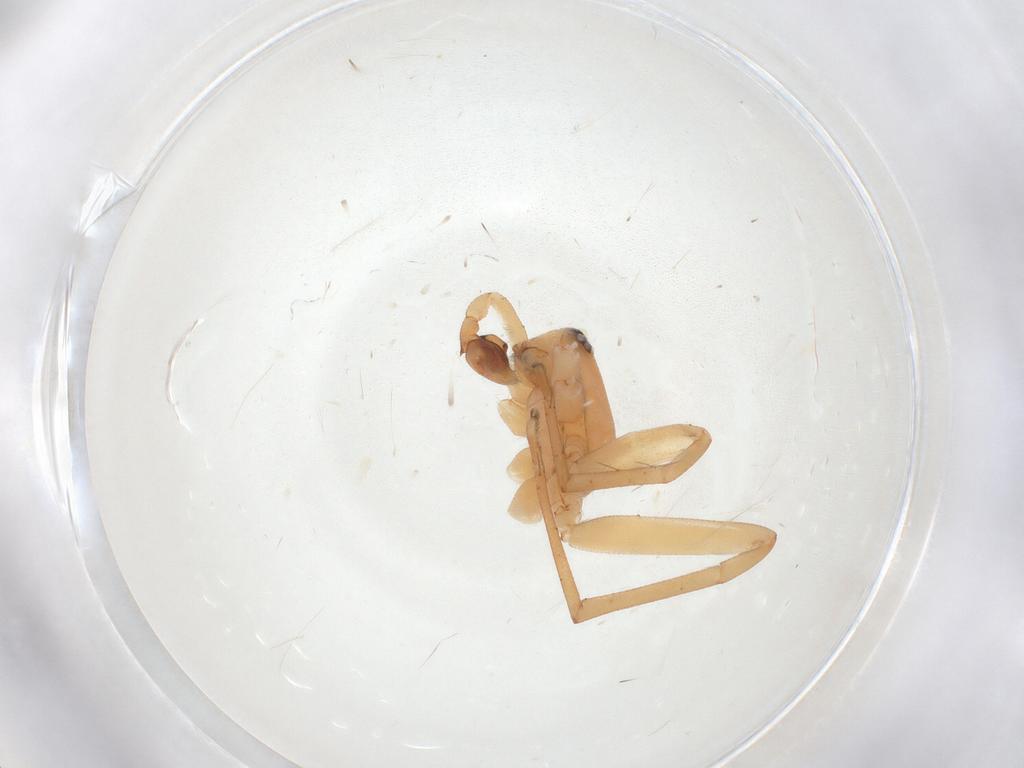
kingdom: Animalia
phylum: Arthropoda
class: Arachnida
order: Araneae
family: Corinnidae
